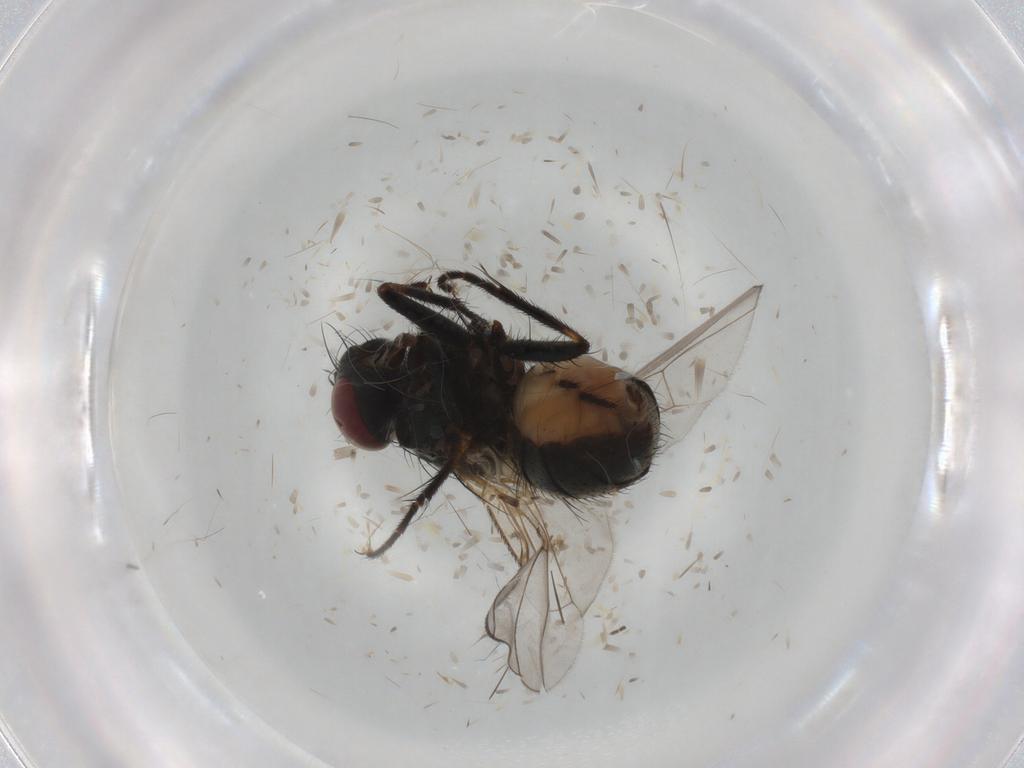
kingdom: Animalia
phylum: Arthropoda
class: Insecta
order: Diptera
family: Muscidae
